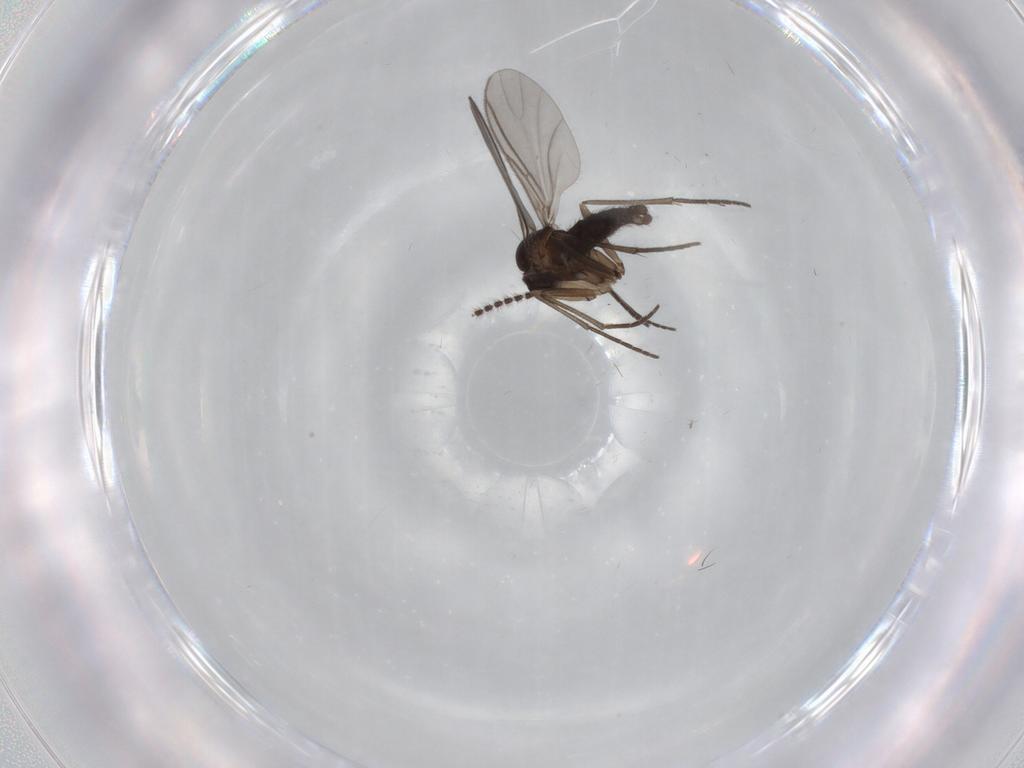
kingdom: Animalia
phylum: Arthropoda
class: Insecta
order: Diptera
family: Sciaridae
